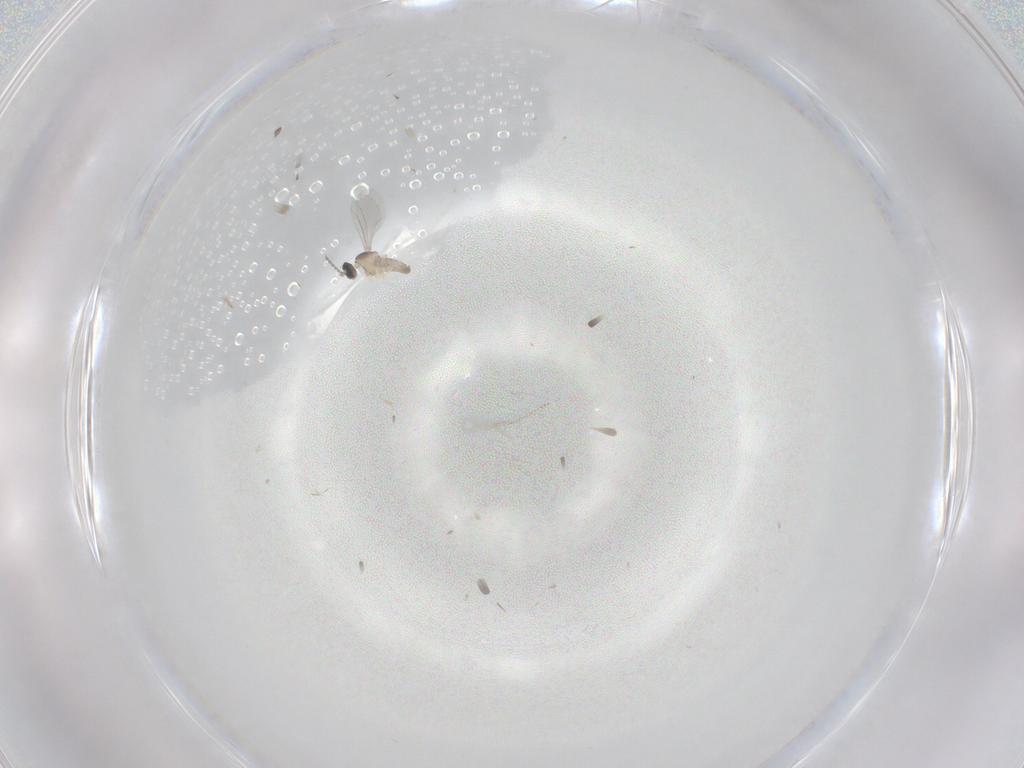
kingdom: Animalia
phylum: Arthropoda
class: Insecta
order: Diptera
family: Cecidomyiidae
